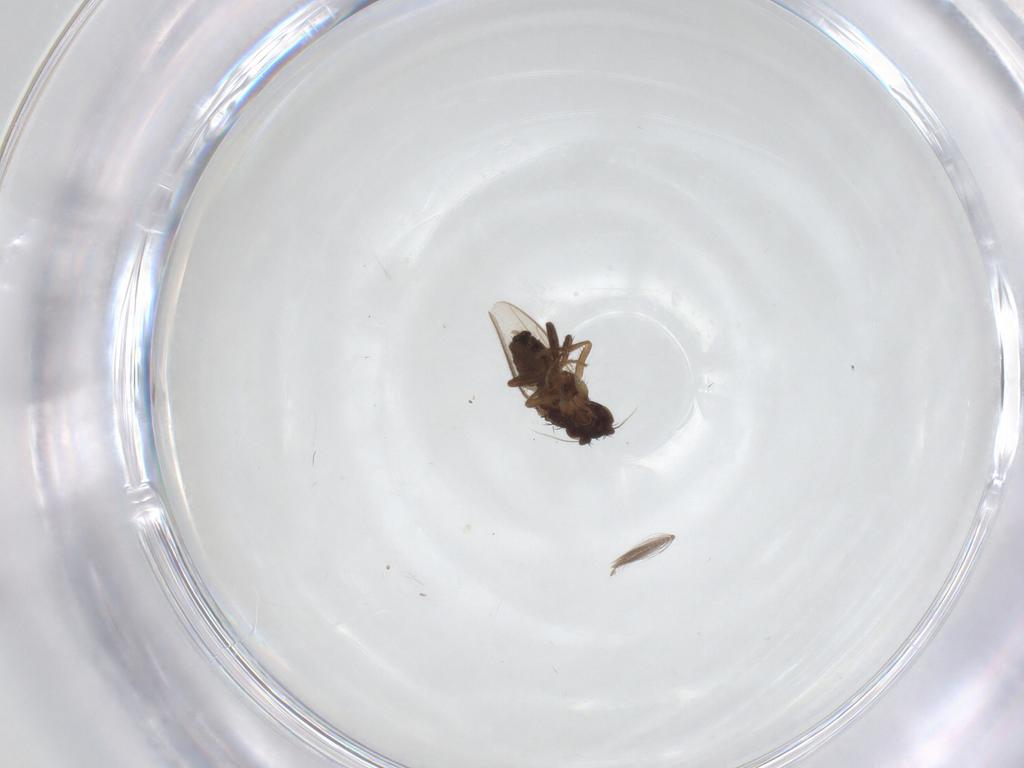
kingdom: Animalia
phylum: Arthropoda
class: Insecta
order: Diptera
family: Sphaeroceridae
